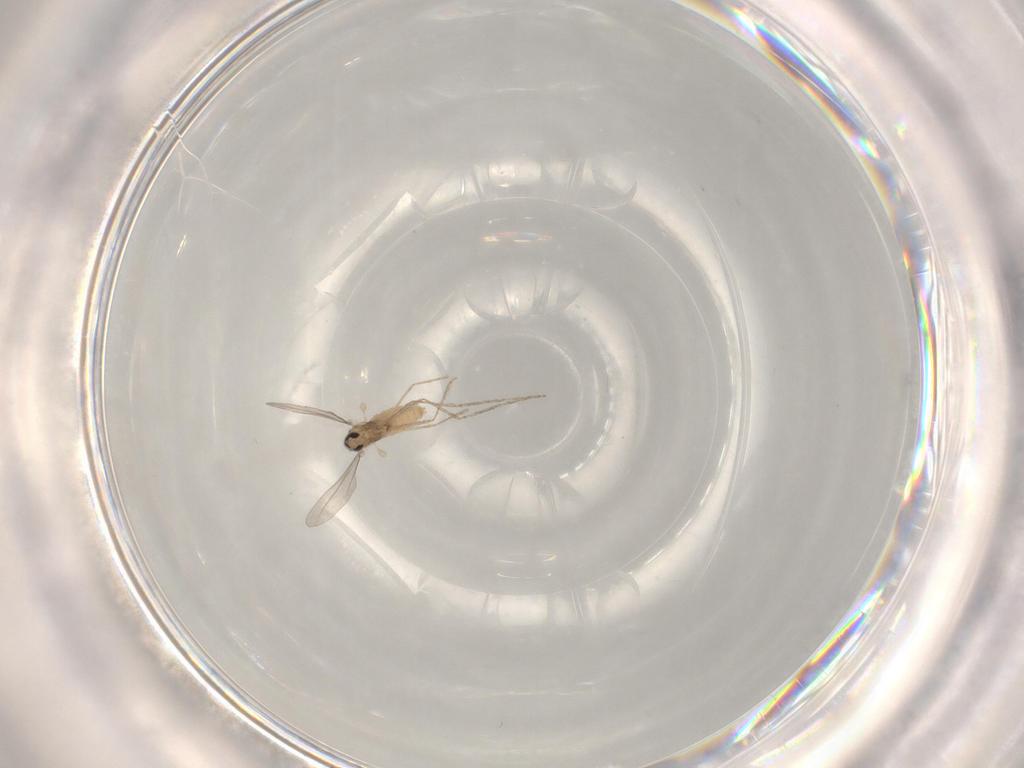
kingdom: Animalia
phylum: Arthropoda
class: Insecta
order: Diptera
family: Cecidomyiidae
